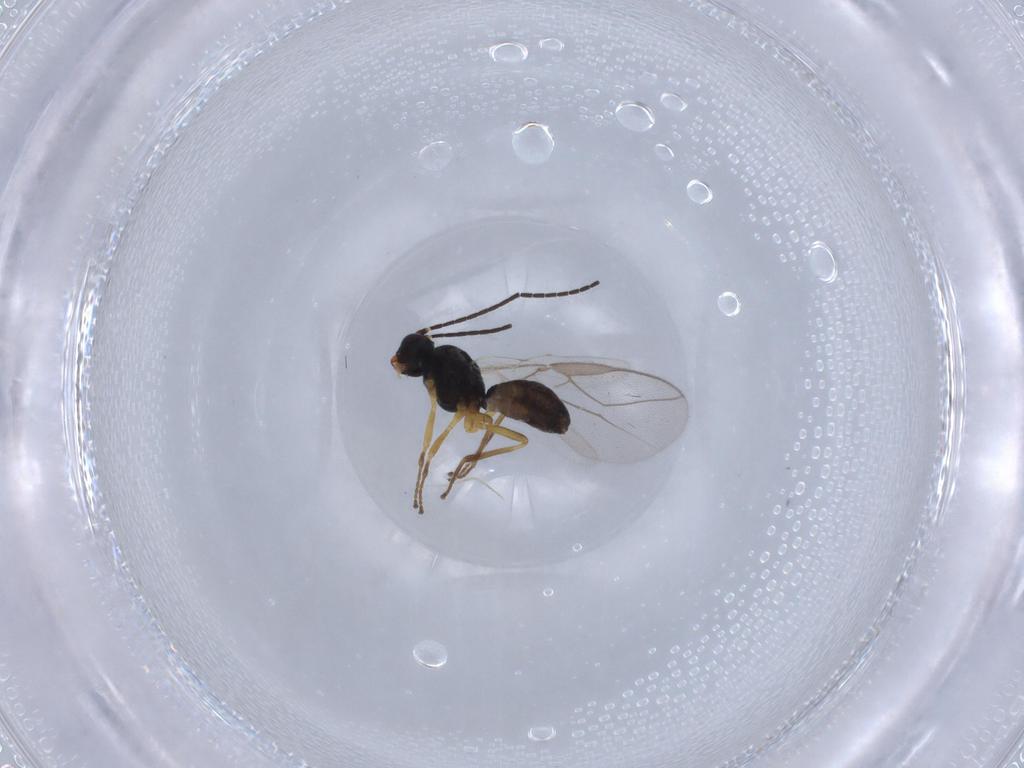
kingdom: Animalia
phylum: Arthropoda
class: Insecta
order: Hymenoptera
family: Braconidae
